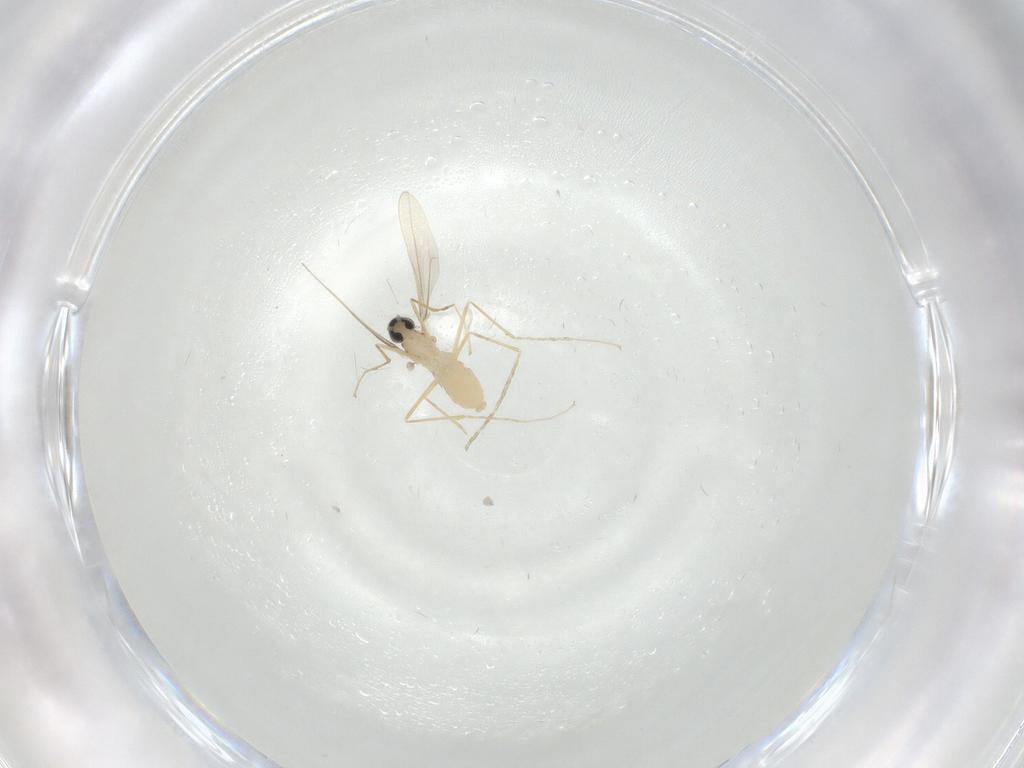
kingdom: Animalia
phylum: Arthropoda
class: Insecta
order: Diptera
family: Cecidomyiidae
